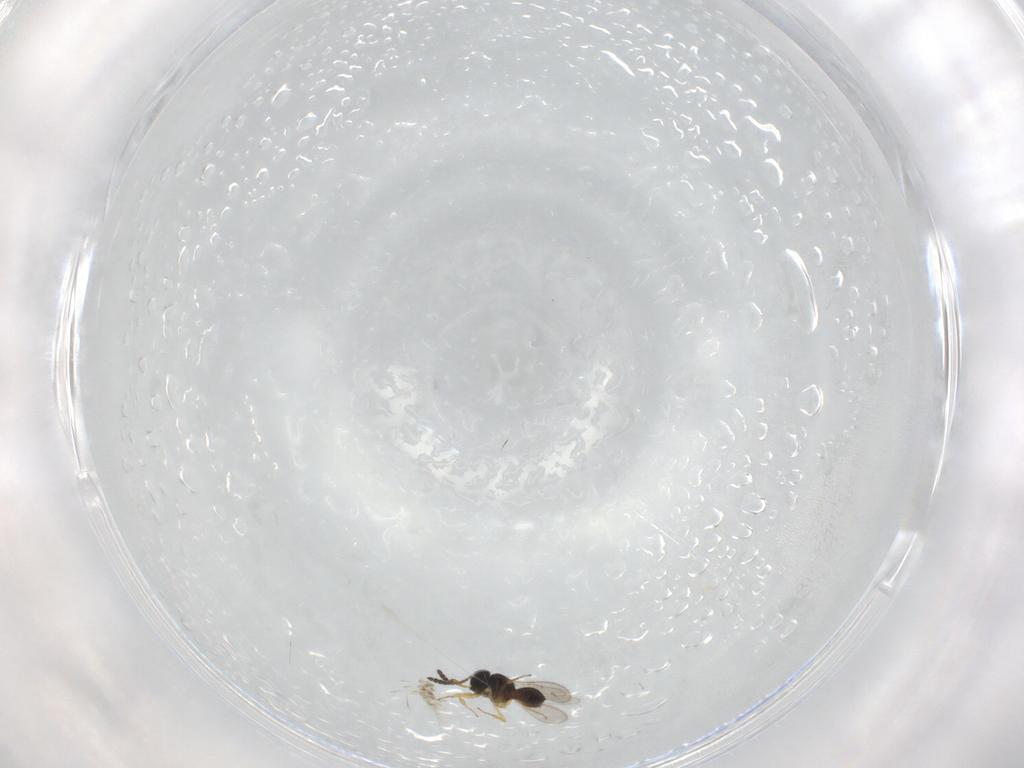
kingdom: Animalia
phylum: Arthropoda
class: Insecta
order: Hymenoptera
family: Scelionidae
